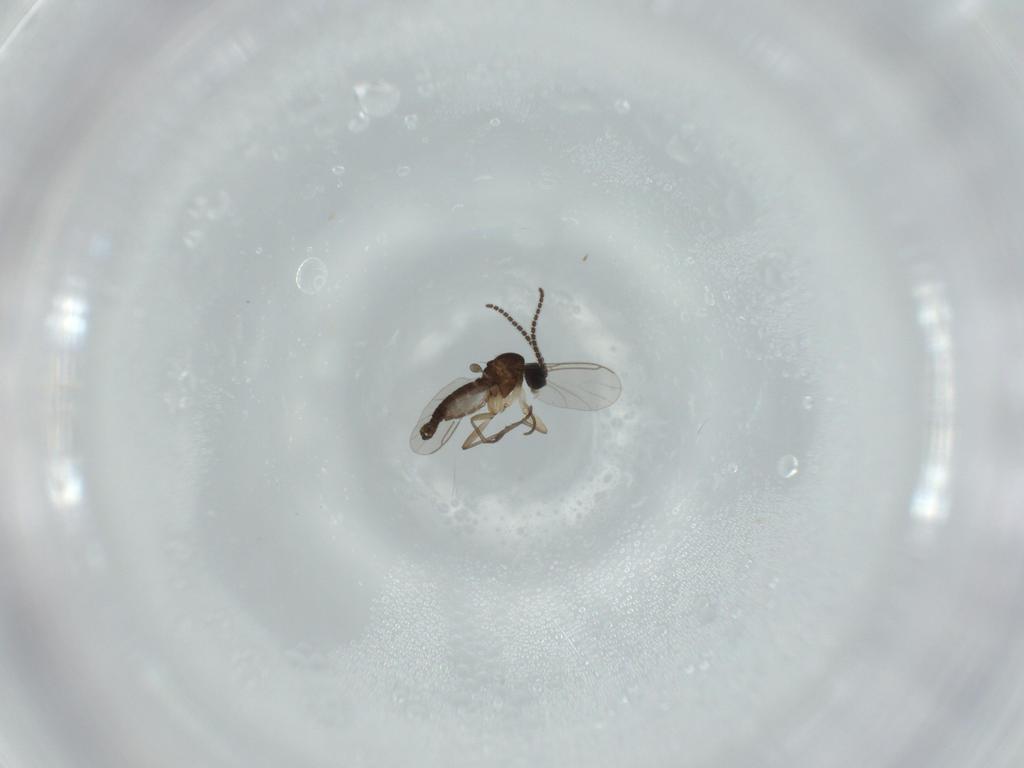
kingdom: Animalia
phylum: Arthropoda
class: Insecta
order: Diptera
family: Sciaridae
